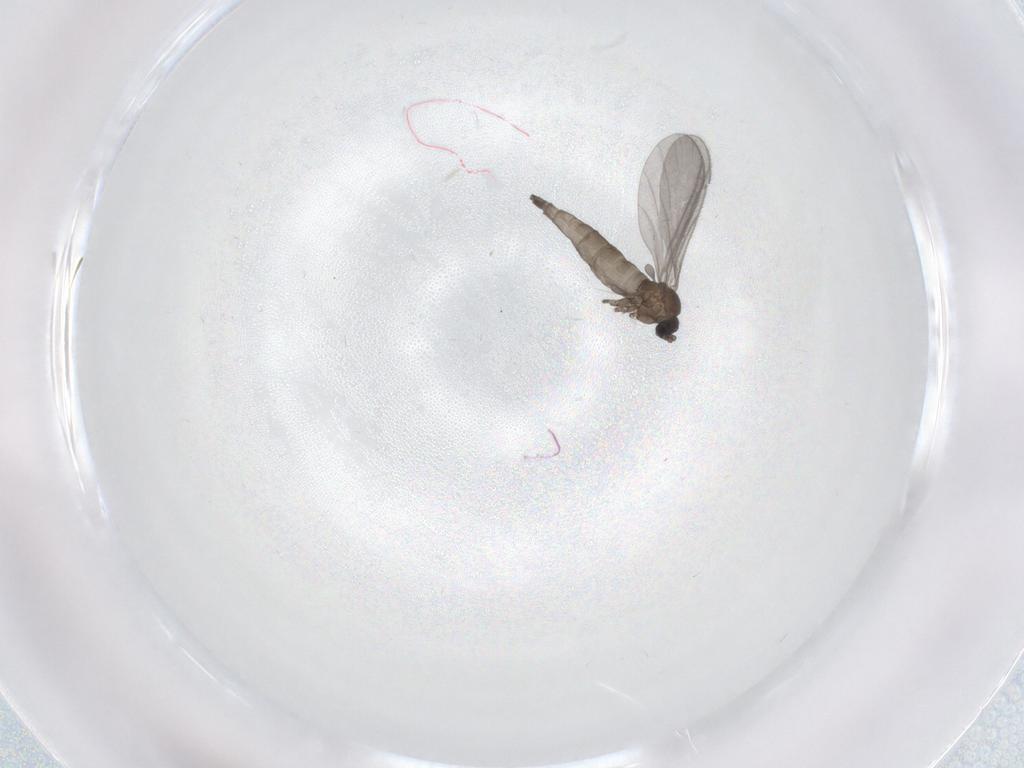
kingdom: Animalia
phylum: Arthropoda
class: Insecta
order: Diptera
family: Sciaridae
